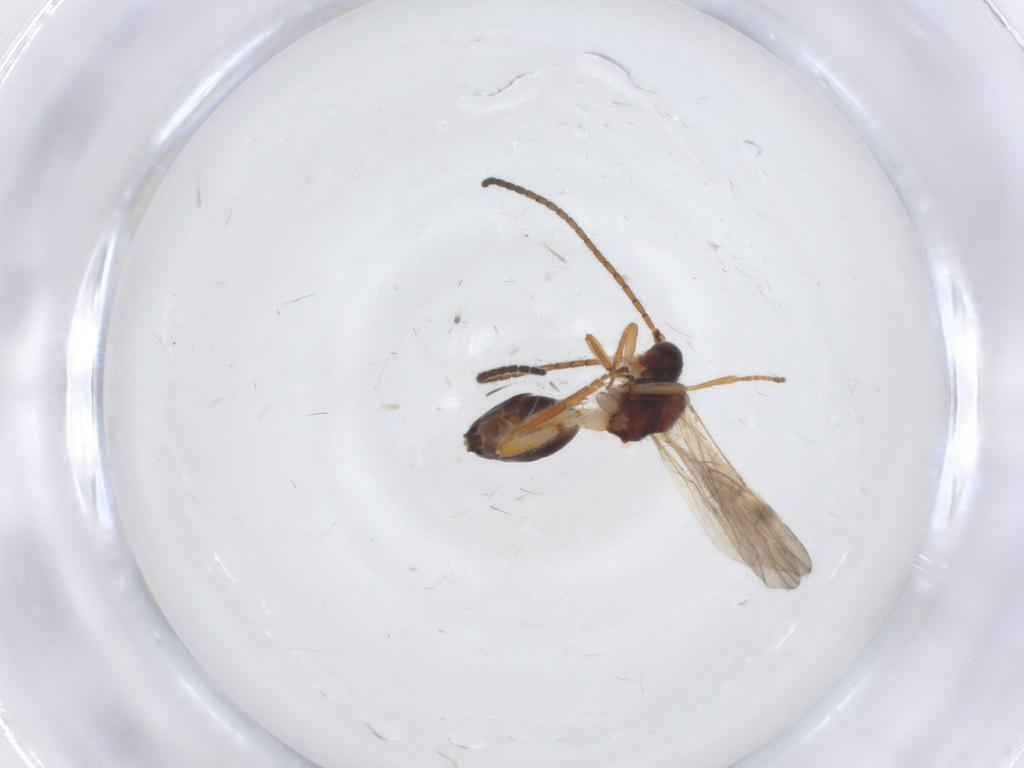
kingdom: Animalia
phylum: Arthropoda
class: Insecta
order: Hymenoptera
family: Braconidae
